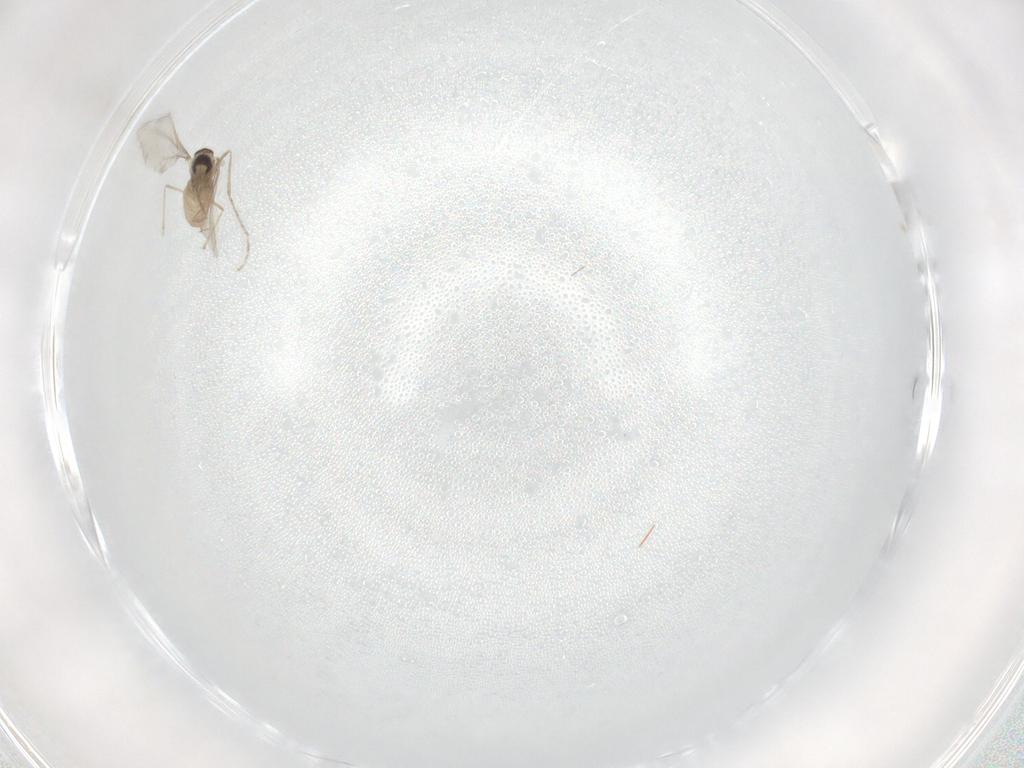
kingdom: Animalia
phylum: Arthropoda
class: Insecta
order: Diptera
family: Cecidomyiidae
